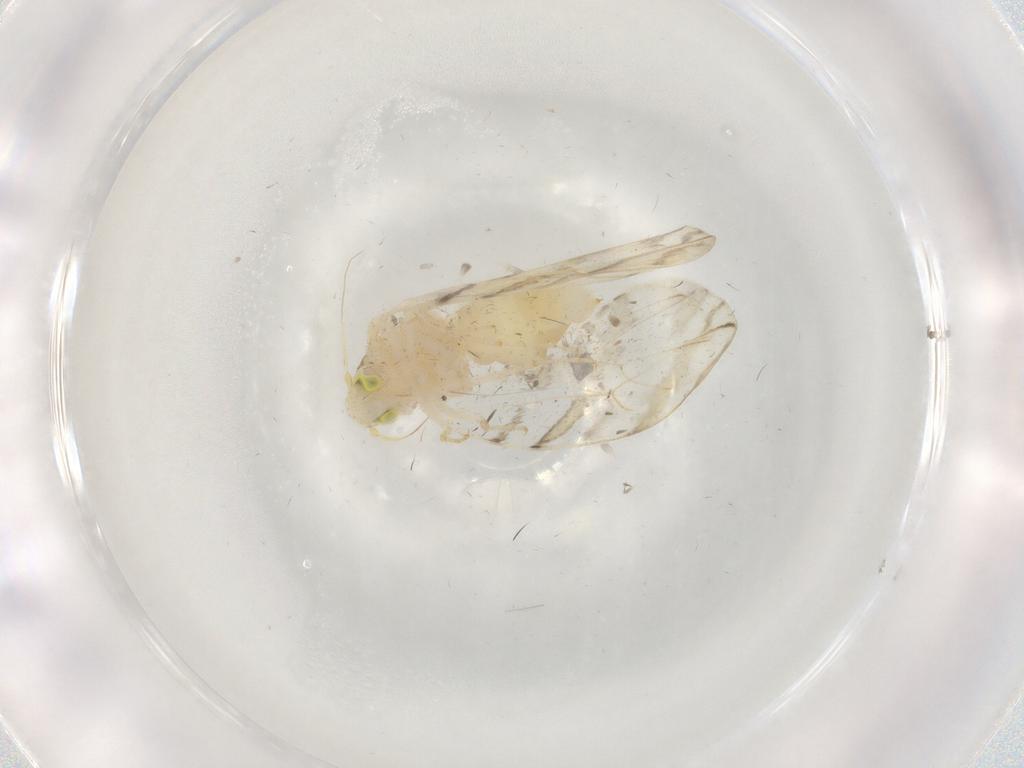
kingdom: Animalia
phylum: Arthropoda
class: Insecta
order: Hemiptera
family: Aleyrodidae
